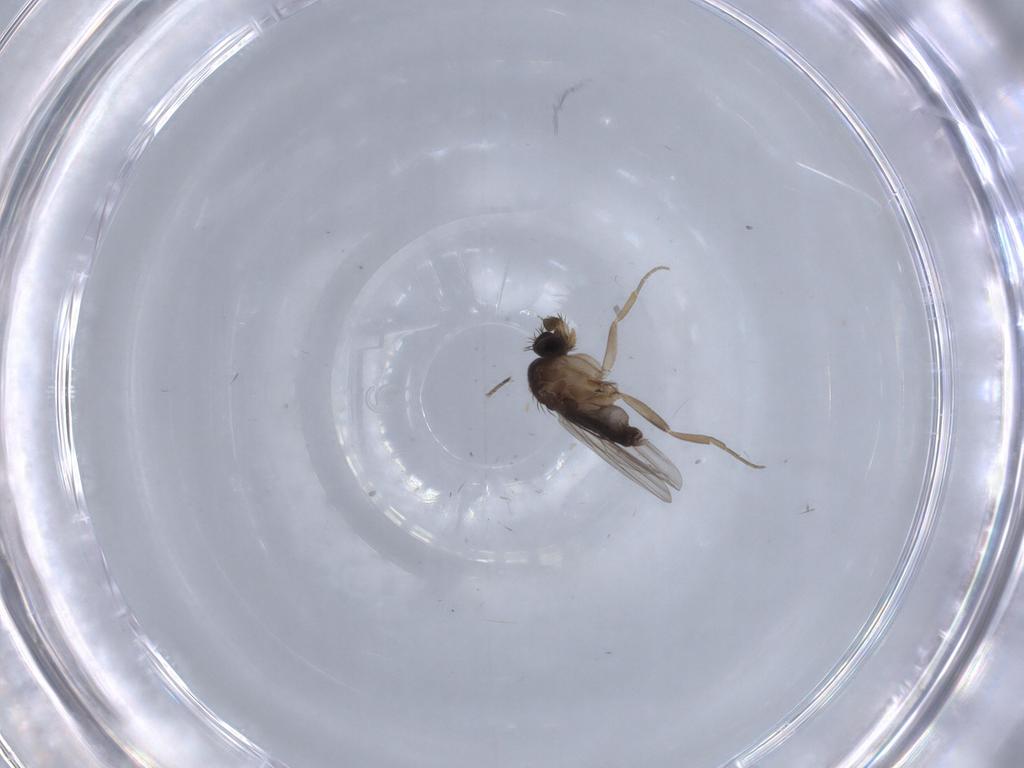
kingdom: Animalia
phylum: Arthropoda
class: Insecta
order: Diptera
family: Phoridae
